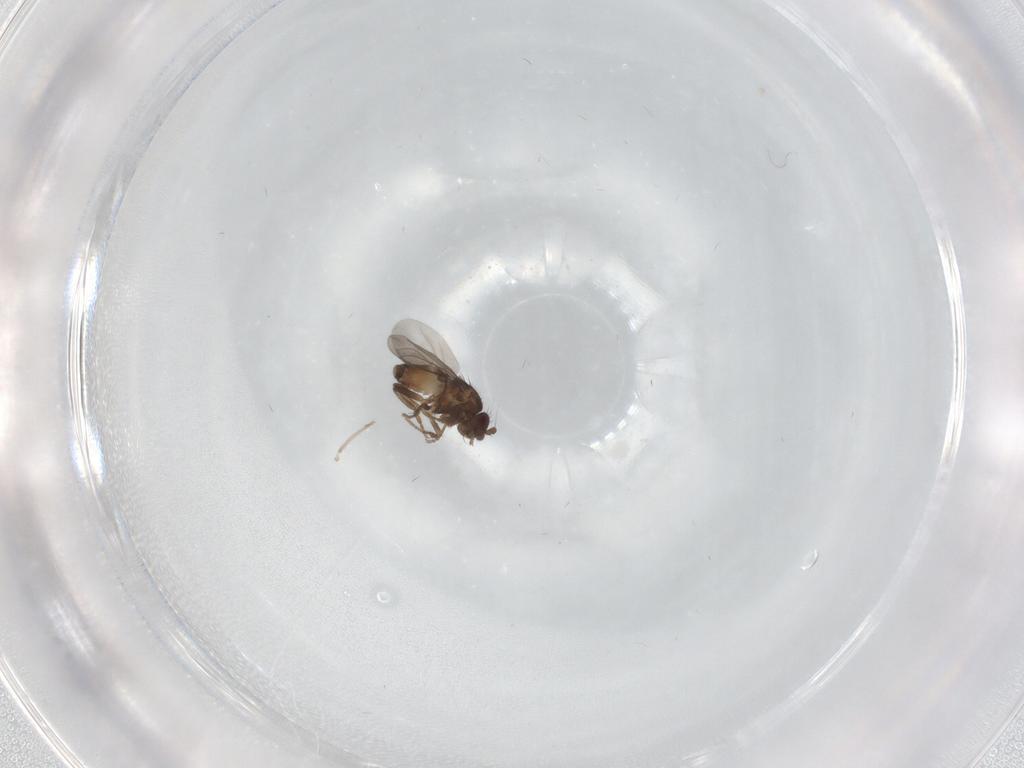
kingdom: Animalia
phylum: Arthropoda
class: Insecta
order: Diptera
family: Cecidomyiidae
